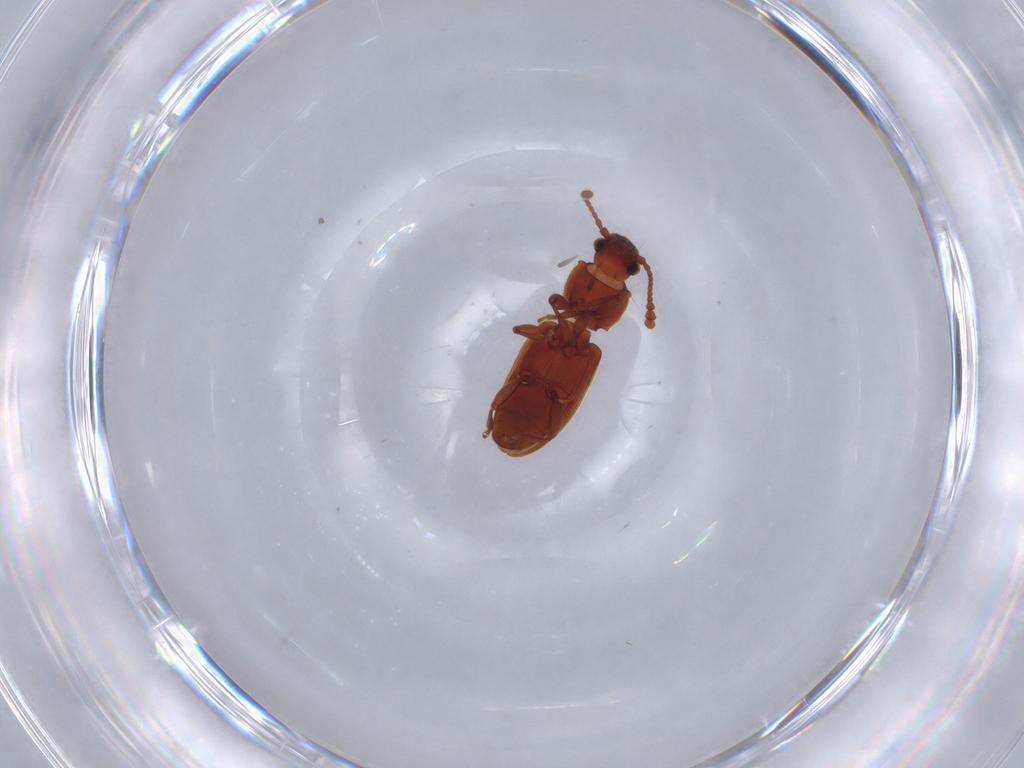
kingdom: Animalia
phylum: Arthropoda
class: Insecta
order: Coleoptera
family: Silvanidae
